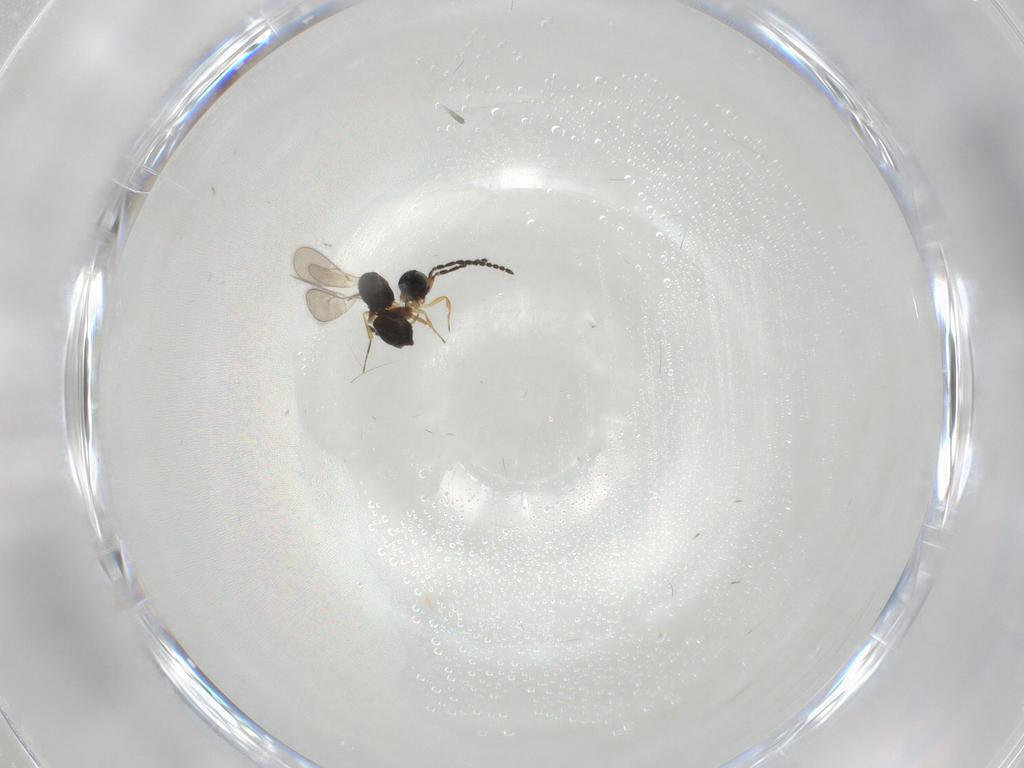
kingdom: Animalia
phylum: Arthropoda
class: Insecta
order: Hymenoptera
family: Scelionidae
